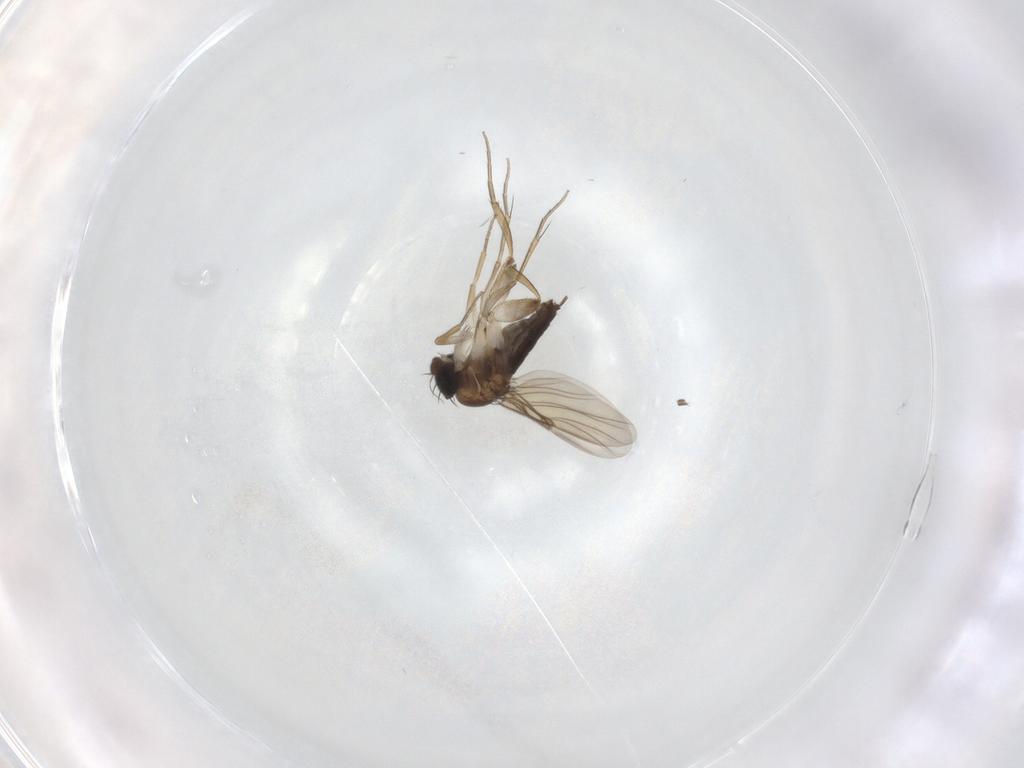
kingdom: Animalia
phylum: Arthropoda
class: Insecta
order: Diptera
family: Phoridae
